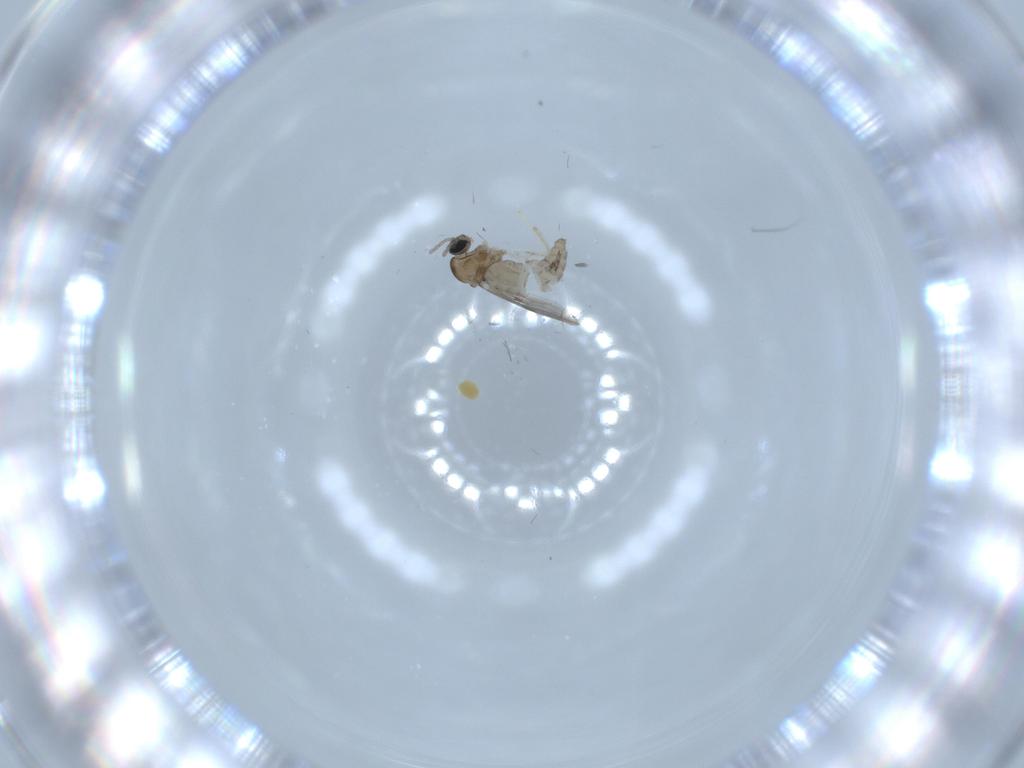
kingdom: Animalia
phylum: Arthropoda
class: Insecta
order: Diptera
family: Cecidomyiidae
